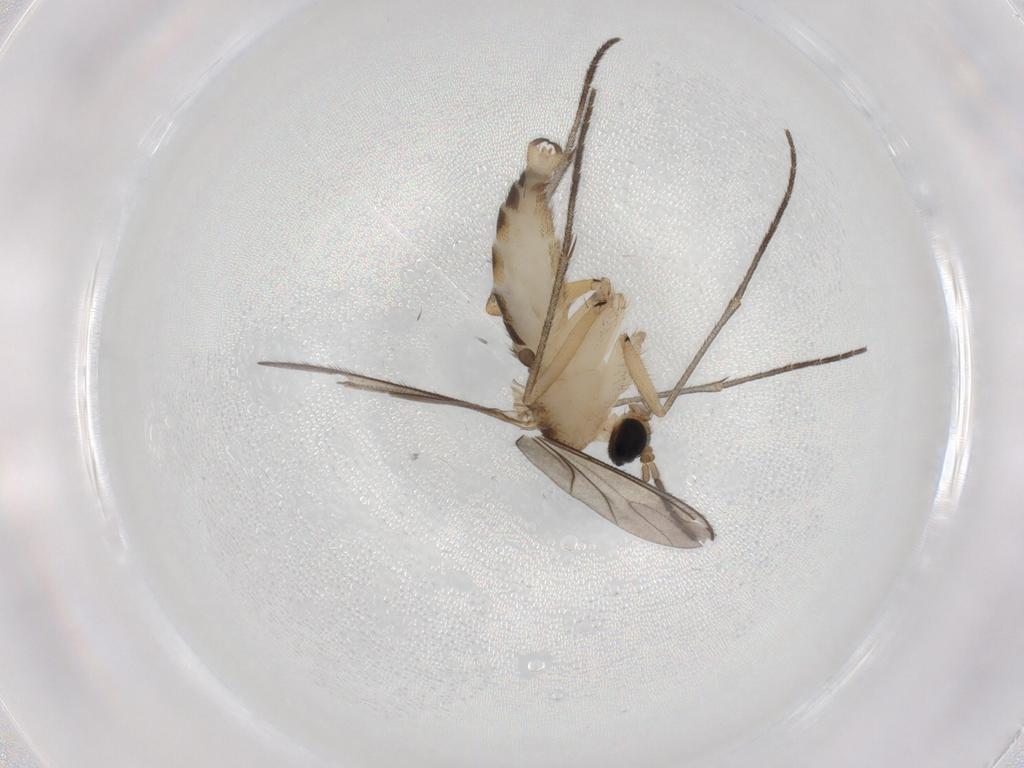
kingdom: Animalia
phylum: Arthropoda
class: Insecta
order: Diptera
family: Sciaridae
